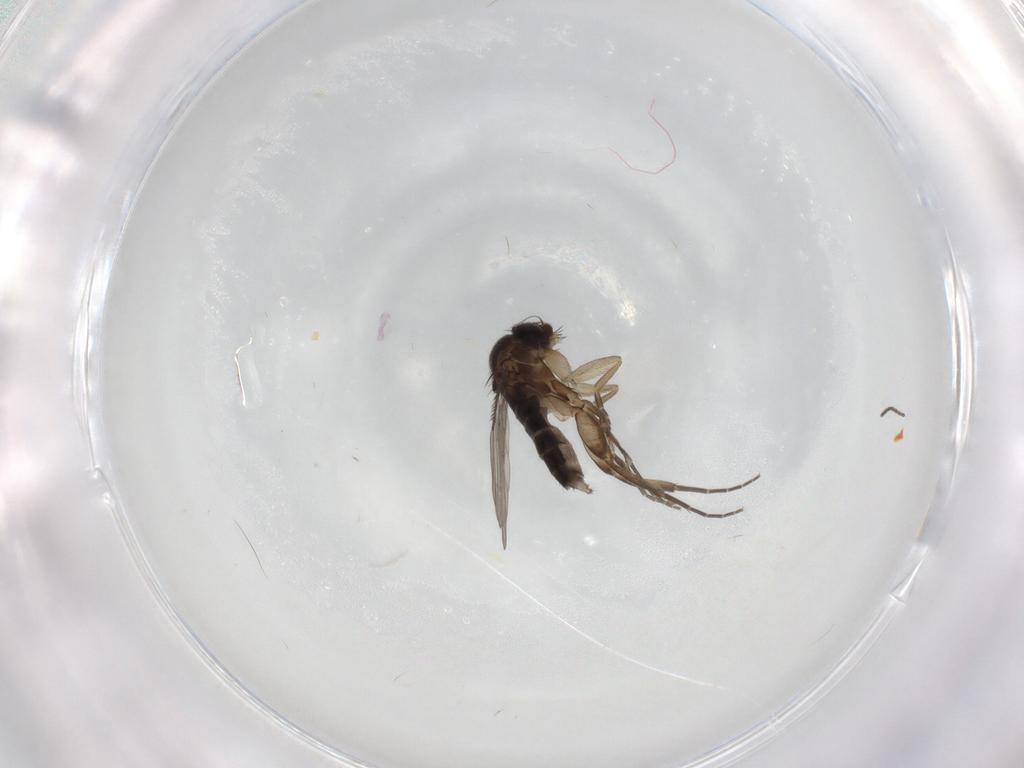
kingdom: Animalia
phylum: Arthropoda
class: Insecta
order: Diptera
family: Phoridae
